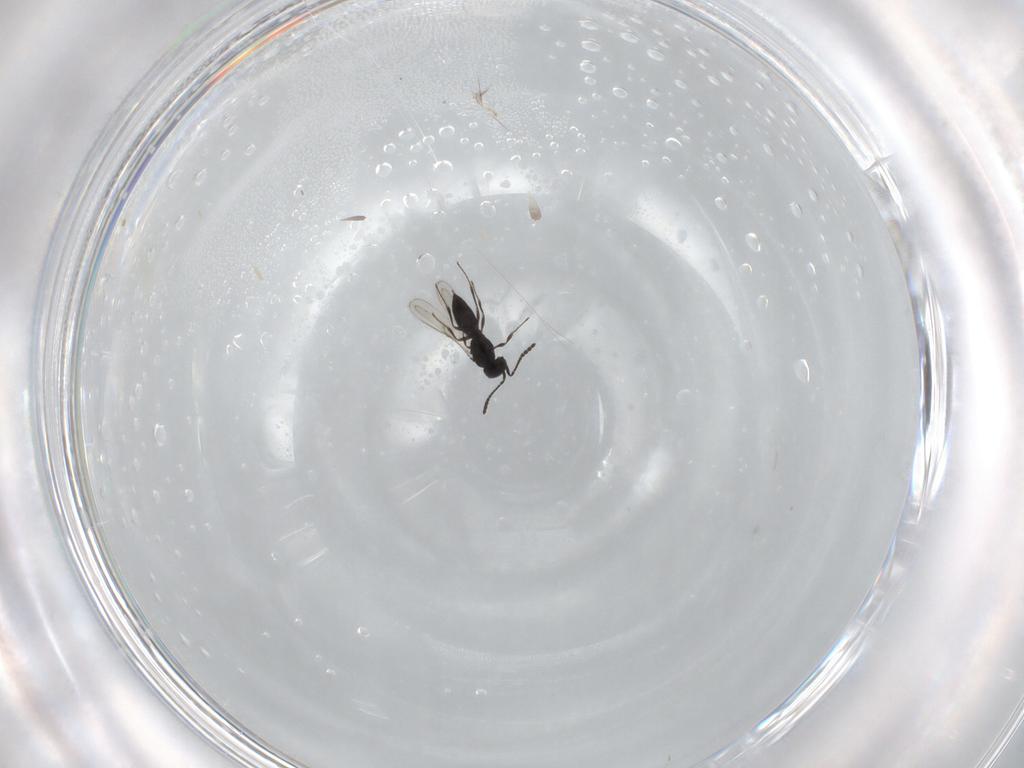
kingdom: Animalia
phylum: Arthropoda
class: Insecta
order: Hymenoptera
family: Scelionidae
